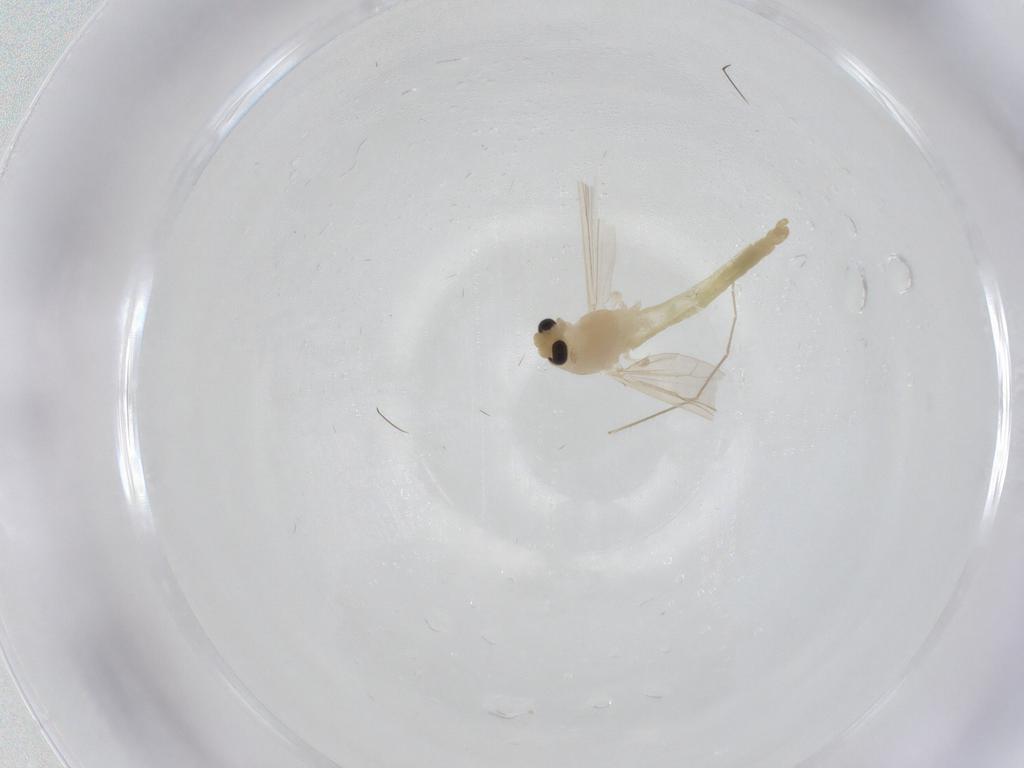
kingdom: Animalia
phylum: Arthropoda
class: Insecta
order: Diptera
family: Chironomidae
